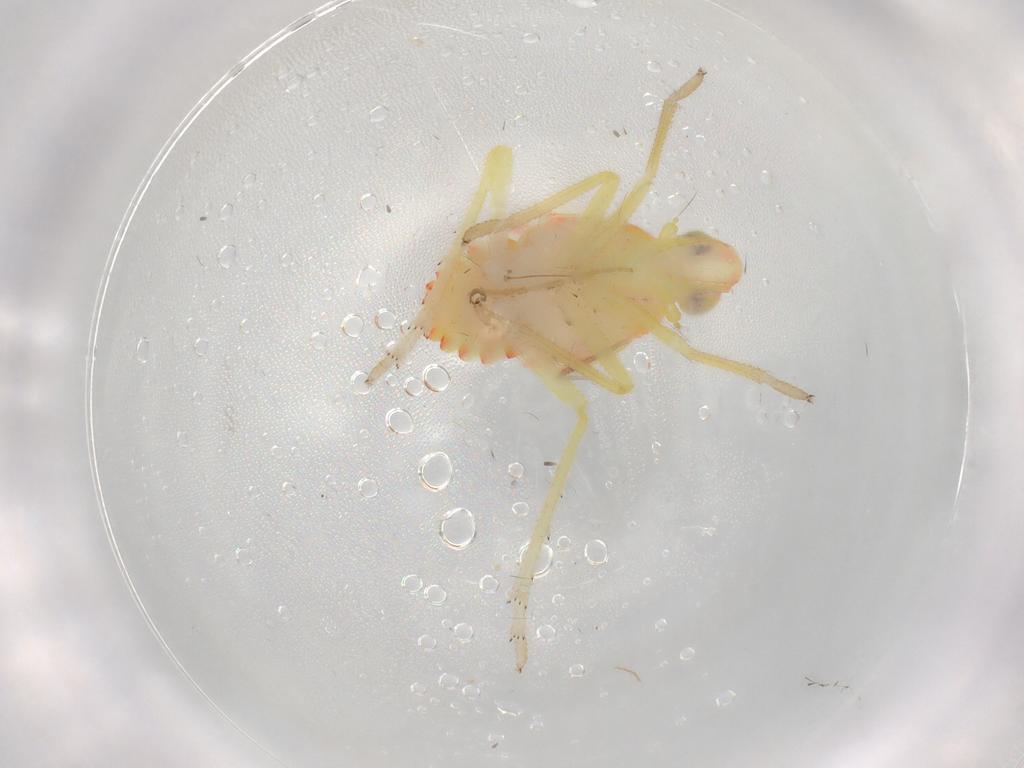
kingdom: Animalia
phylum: Arthropoda
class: Insecta
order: Hemiptera
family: Tropiduchidae
